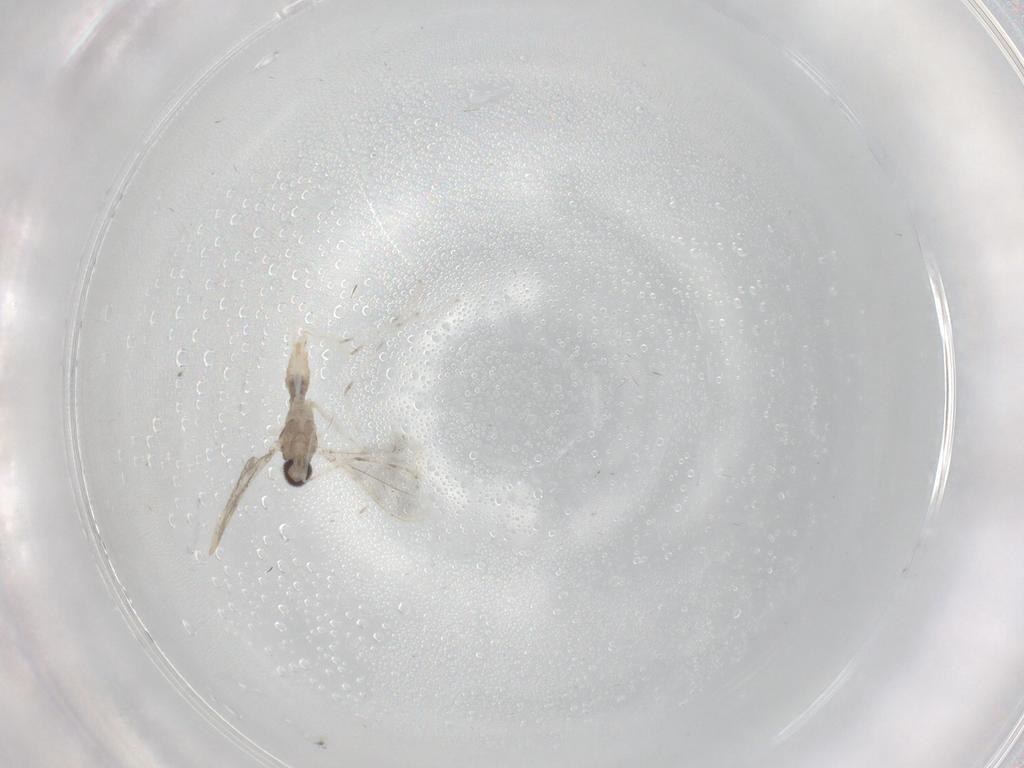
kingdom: Animalia
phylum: Arthropoda
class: Insecta
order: Diptera
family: Cecidomyiidae
